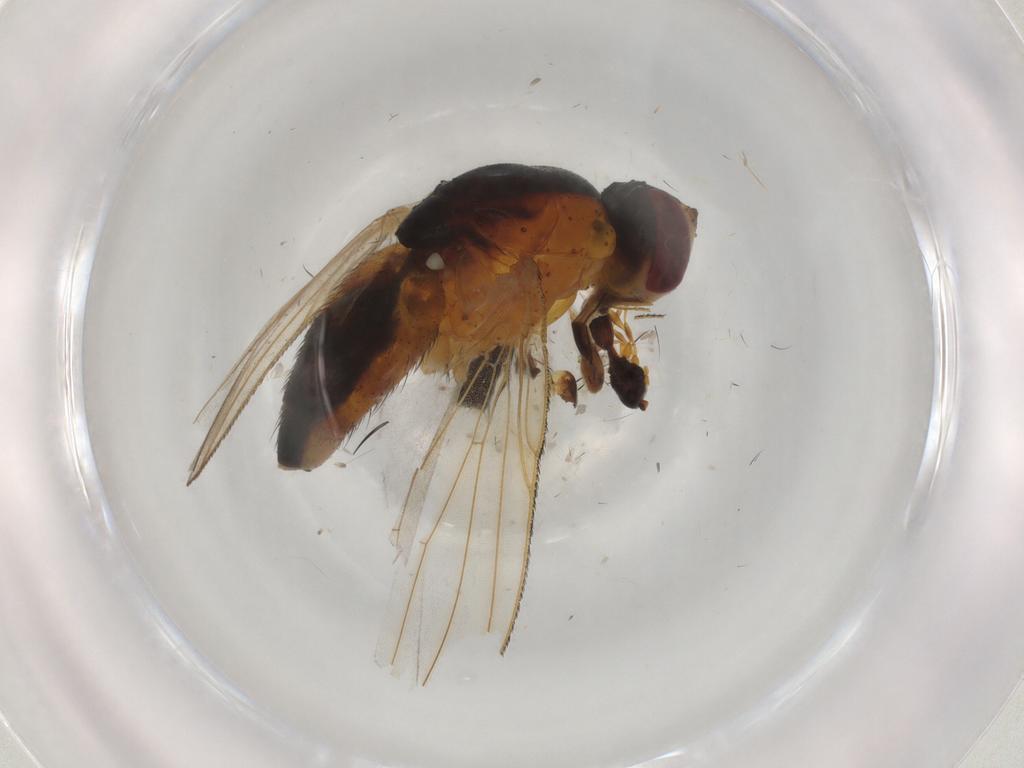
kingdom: Animalia
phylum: Arthropoda
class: Insecta
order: Diptera
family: Muscidae
